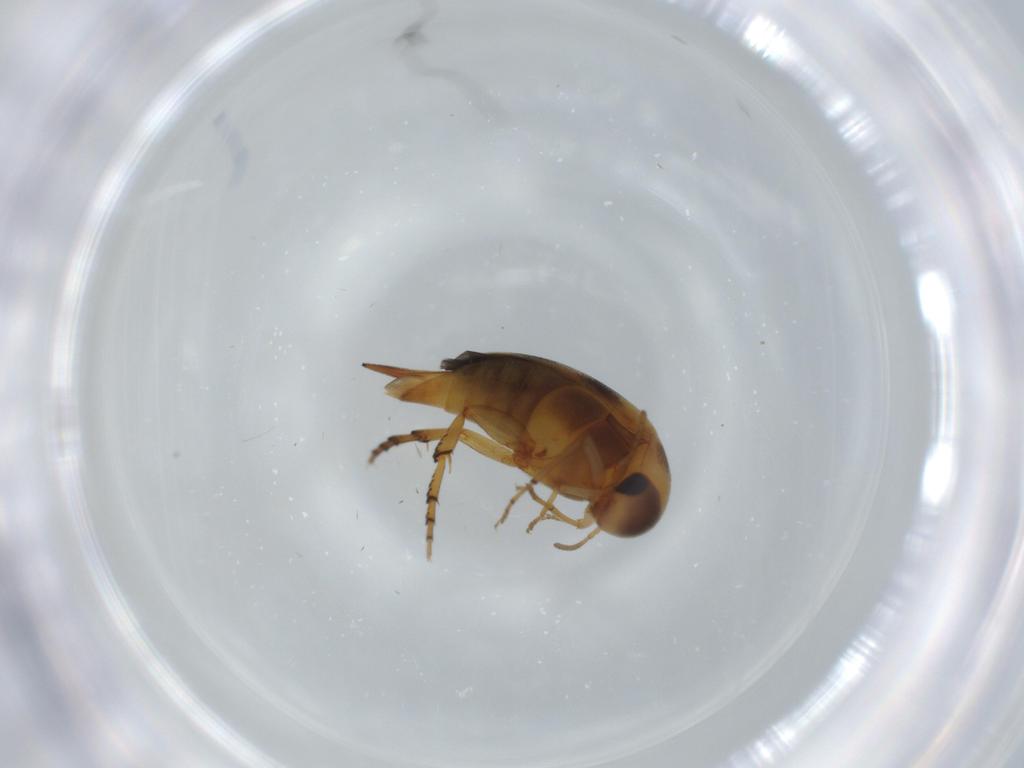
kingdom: Animalia
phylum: Arthropoda
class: Insecta
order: Coleoptera
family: Mordellidae
